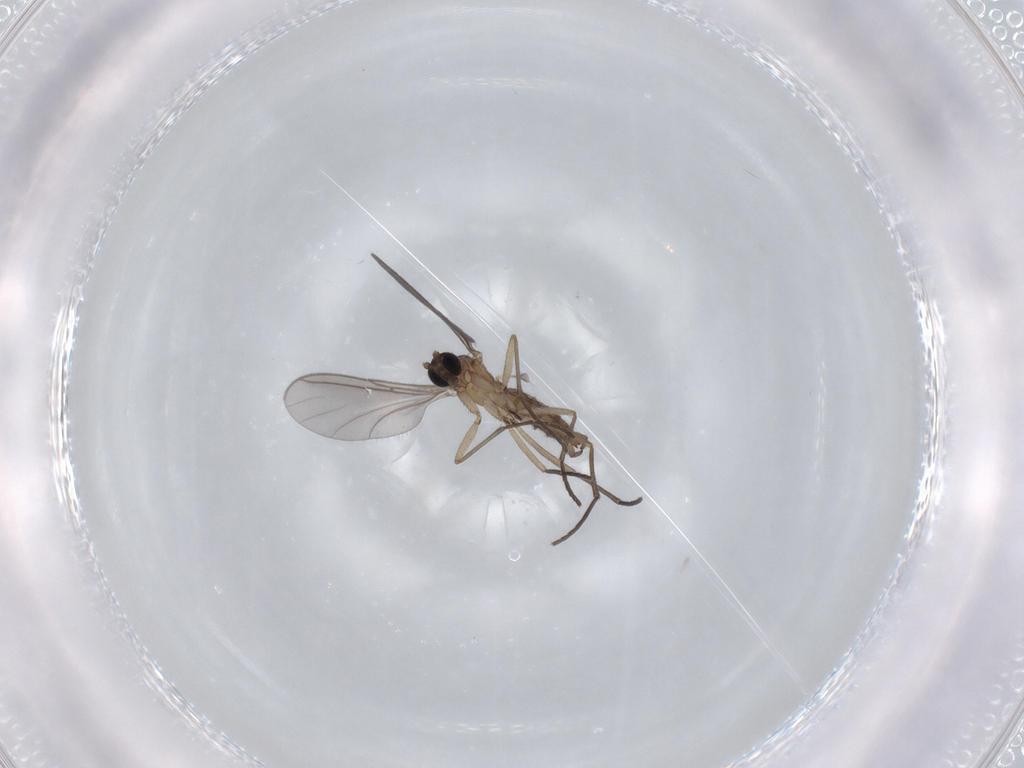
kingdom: Animalia
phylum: Arthropoda
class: Insecta
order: Diptera
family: Sciaridae
